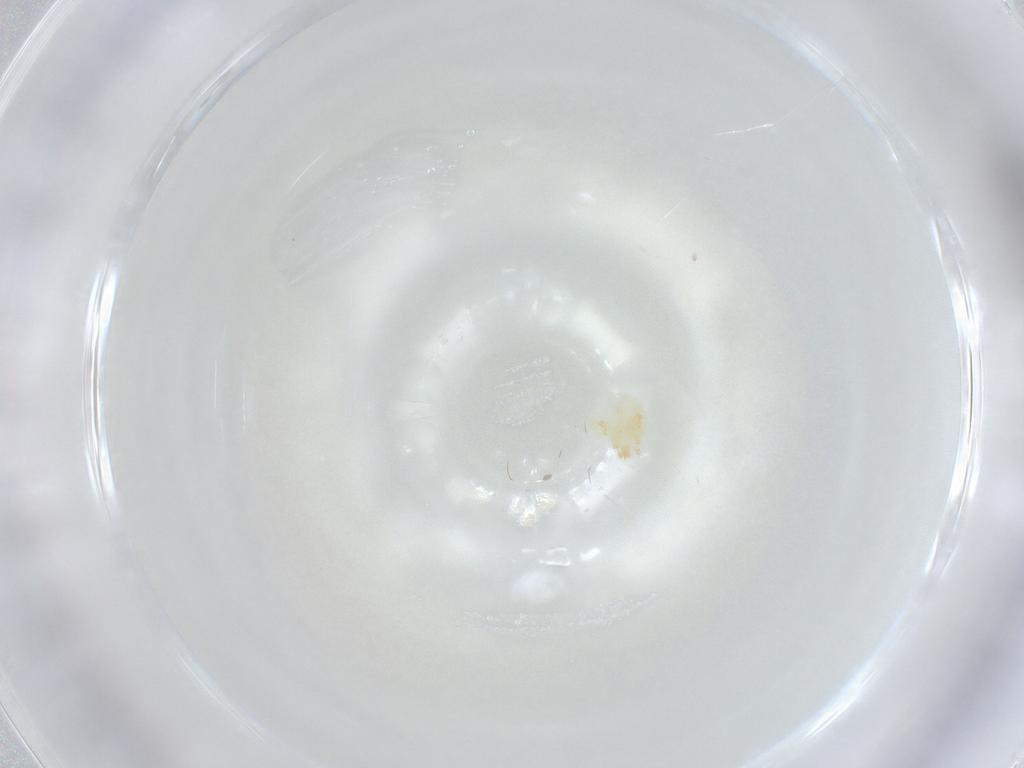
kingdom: Animalia
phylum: Arthropoda
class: Arachnida
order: Trombidiformes
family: Eupodidae
